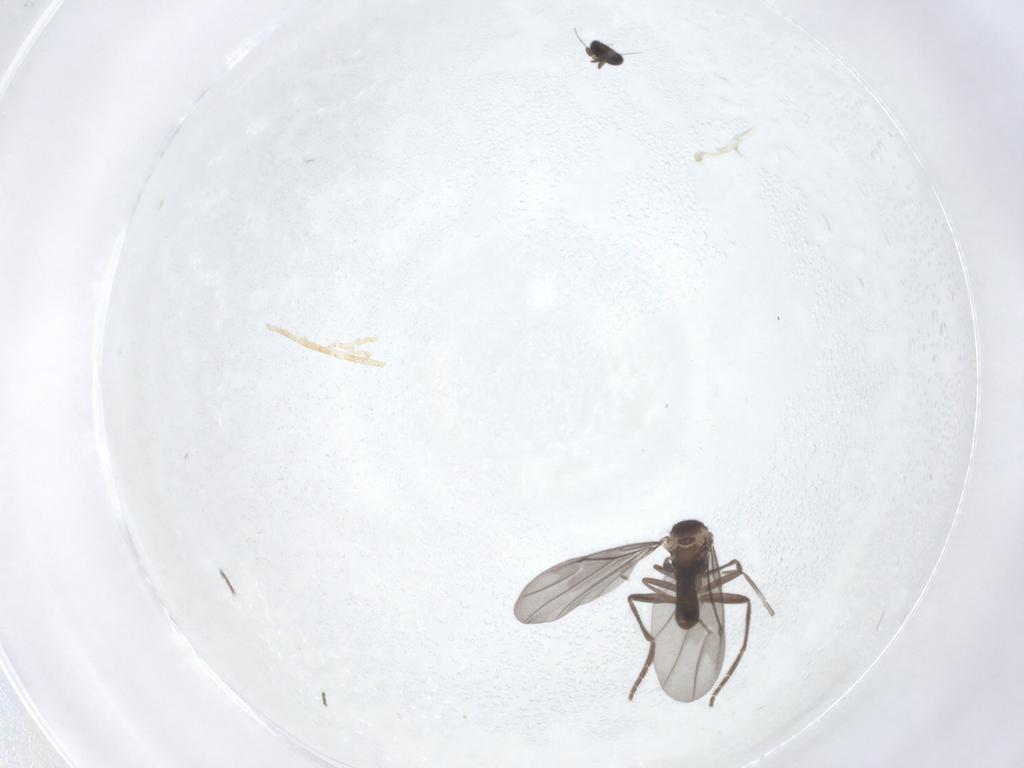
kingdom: Animalia
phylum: Arthropoda
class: Insecta
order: Diptera
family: Phoridae
